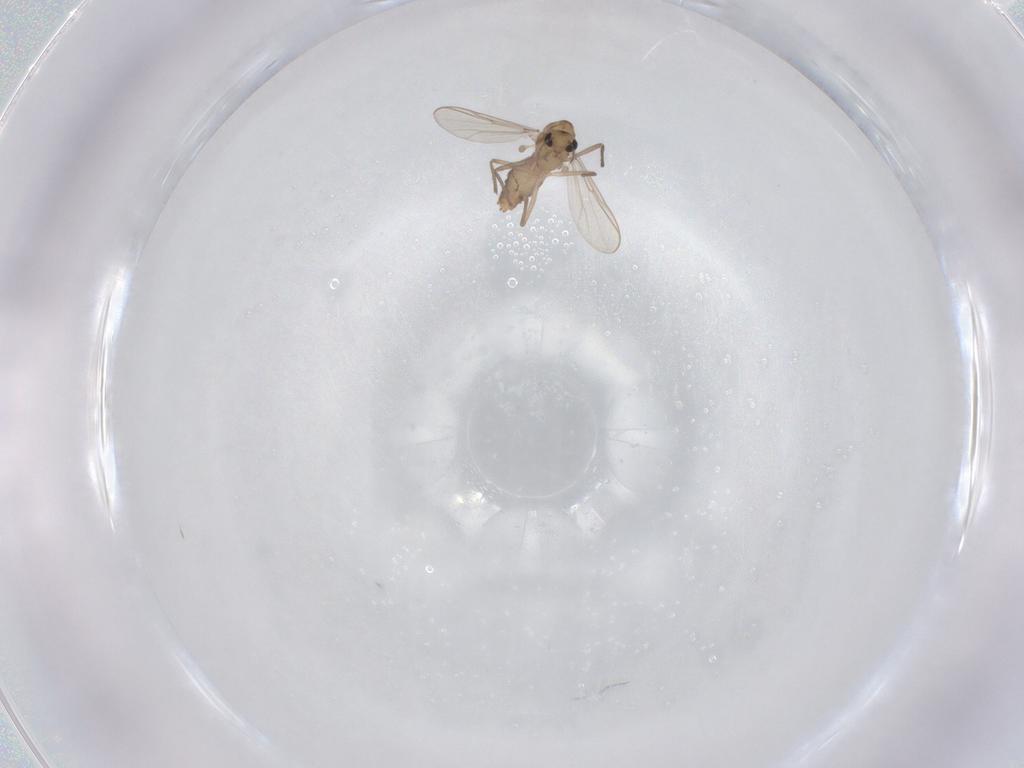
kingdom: Animalia
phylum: Arthropoda
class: Insecta
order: Diptera
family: Chironomidae
